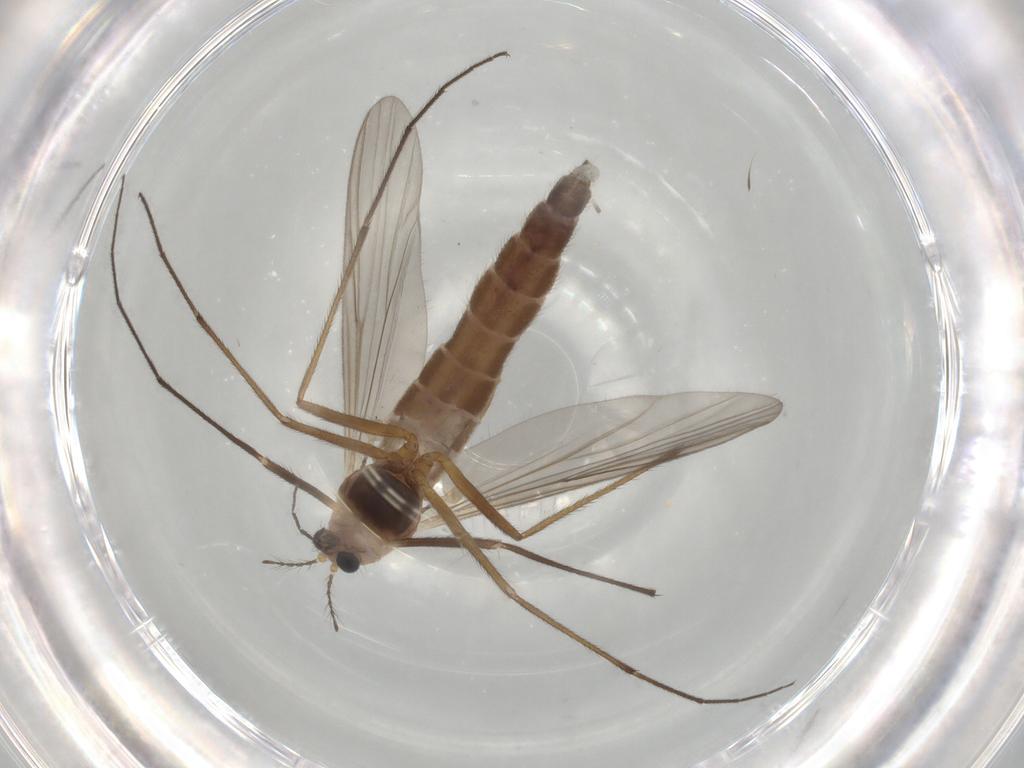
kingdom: Animalia
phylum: Arthropoda
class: Insecta
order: Diptera
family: Chironomidae
